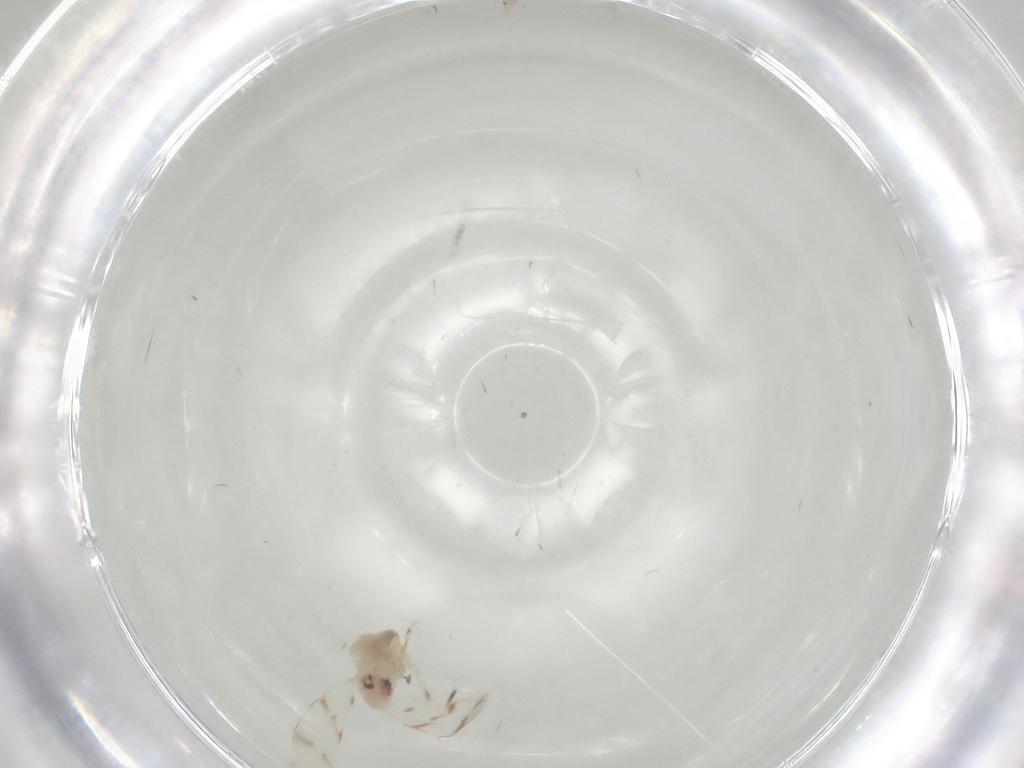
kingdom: Animalia
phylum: Arthropoda
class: Insecta
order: Hemiptera
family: Aleyrodidae
